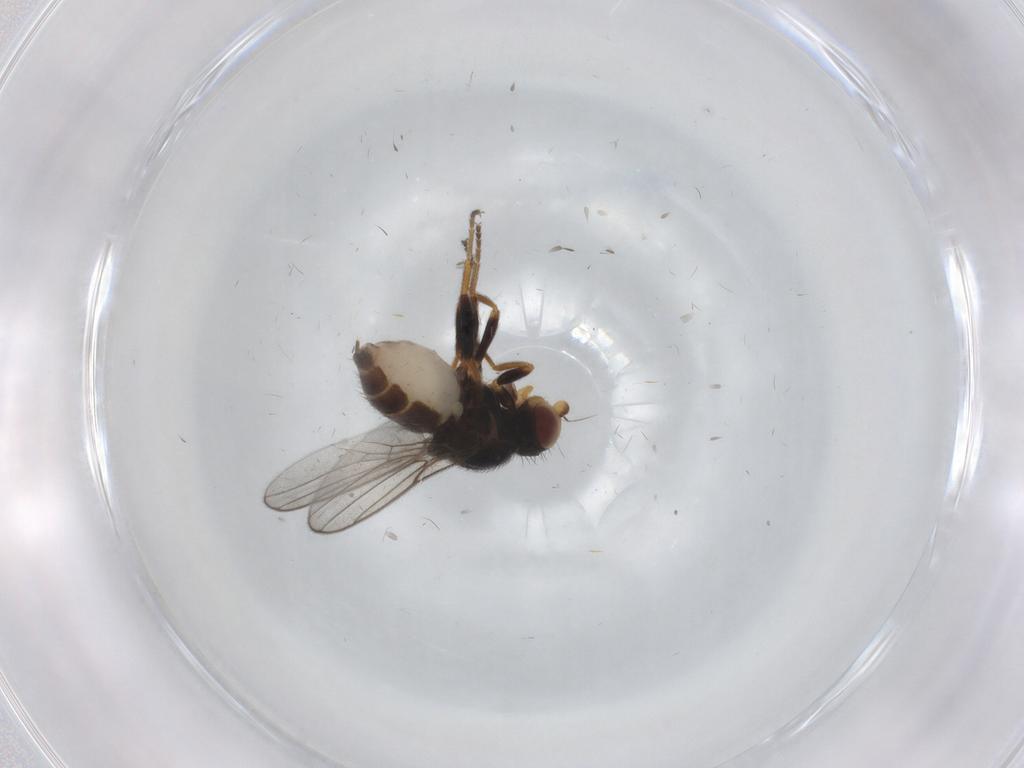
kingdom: Animalia
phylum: Arthropoda
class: Insecta
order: Diptera
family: Chloropidae
